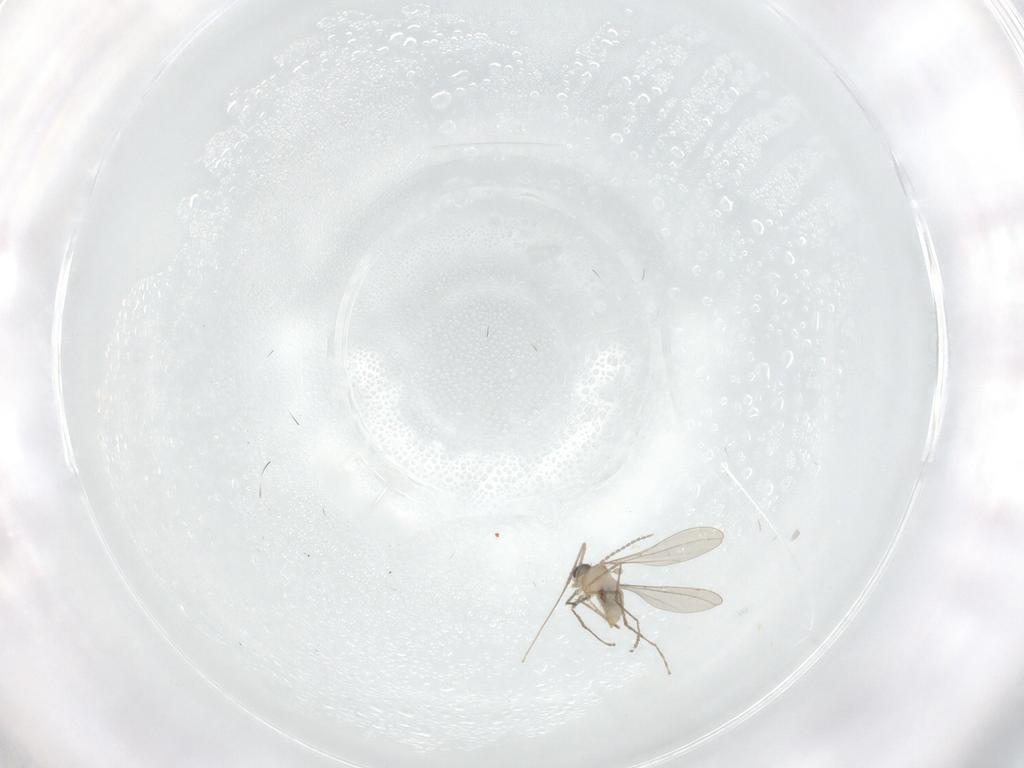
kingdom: Animalia
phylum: Arthropoda
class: Insecta
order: Diptera
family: Cecidomyiidae
